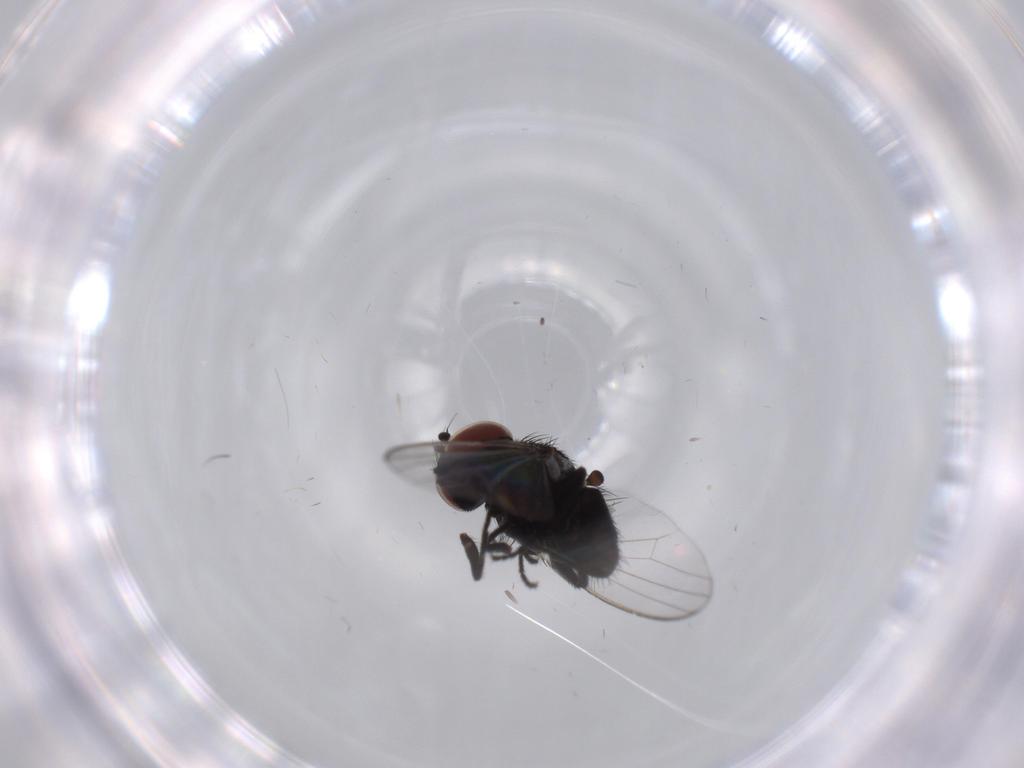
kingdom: Animalia
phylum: Arthropoda
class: Insecta
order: Diptera
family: Milichiidae
